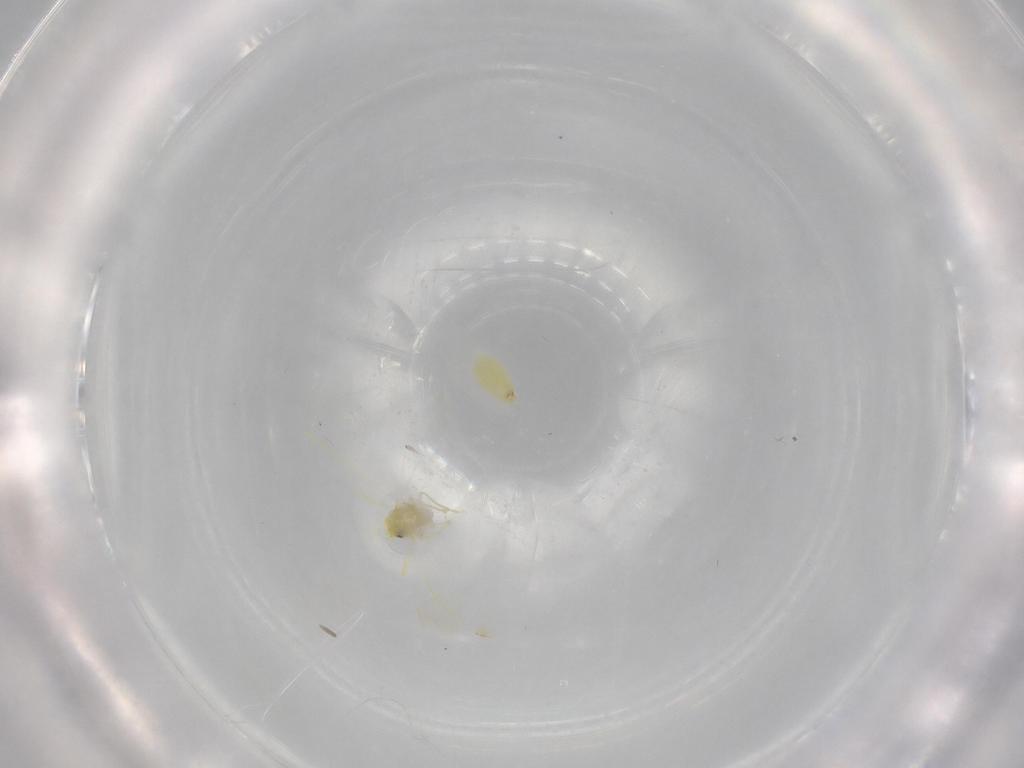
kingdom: Animalia
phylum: Arthropoda
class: Insecta
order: Hemiptera
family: Aleyrodidae
